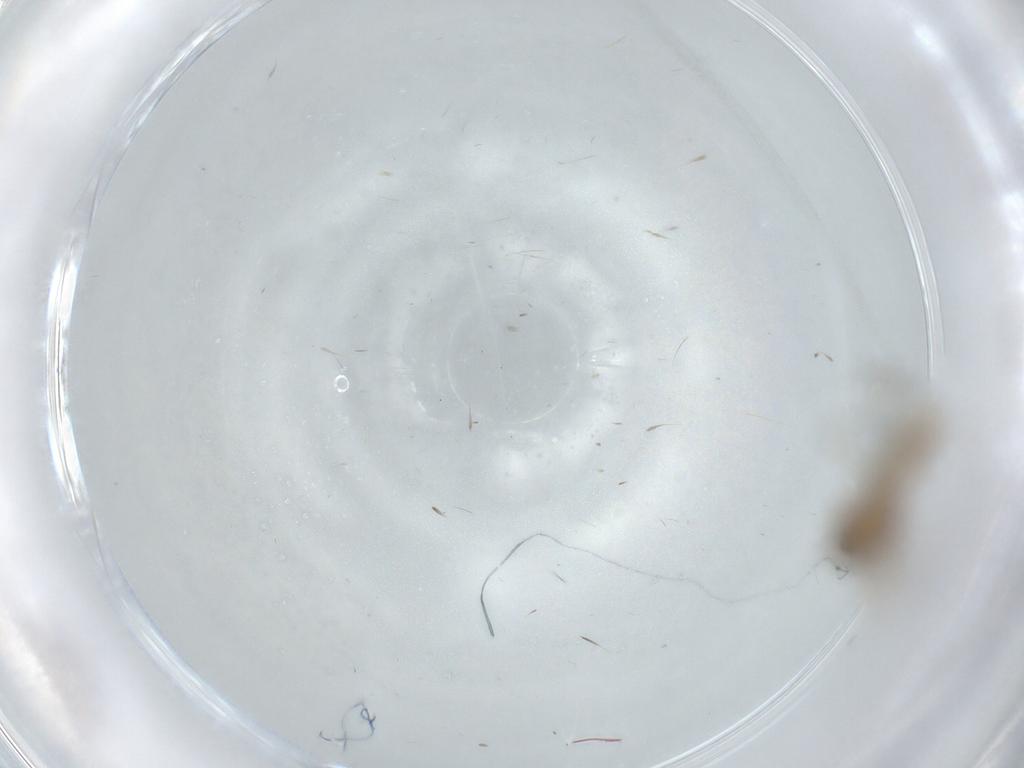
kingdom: Animalia
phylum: Arthropoda
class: Insecta
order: Psocodea
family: Caeciliusidae
